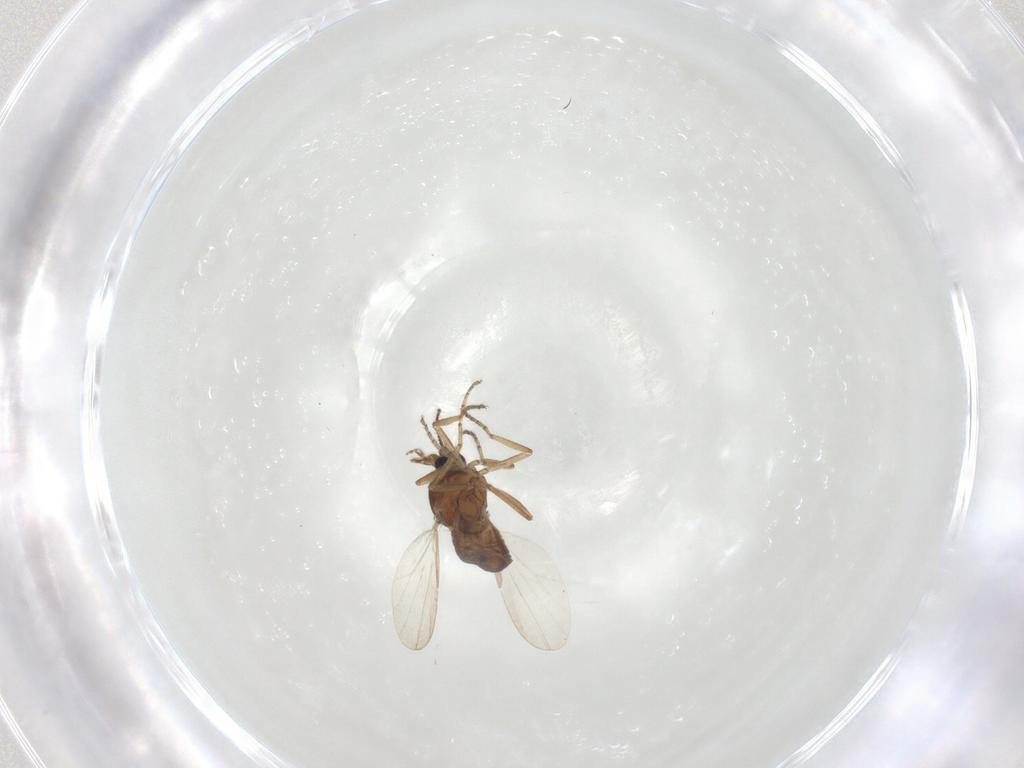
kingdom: Animalia
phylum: Arthropoda
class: Insecta
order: Diptera
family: Ceratopogonidae
